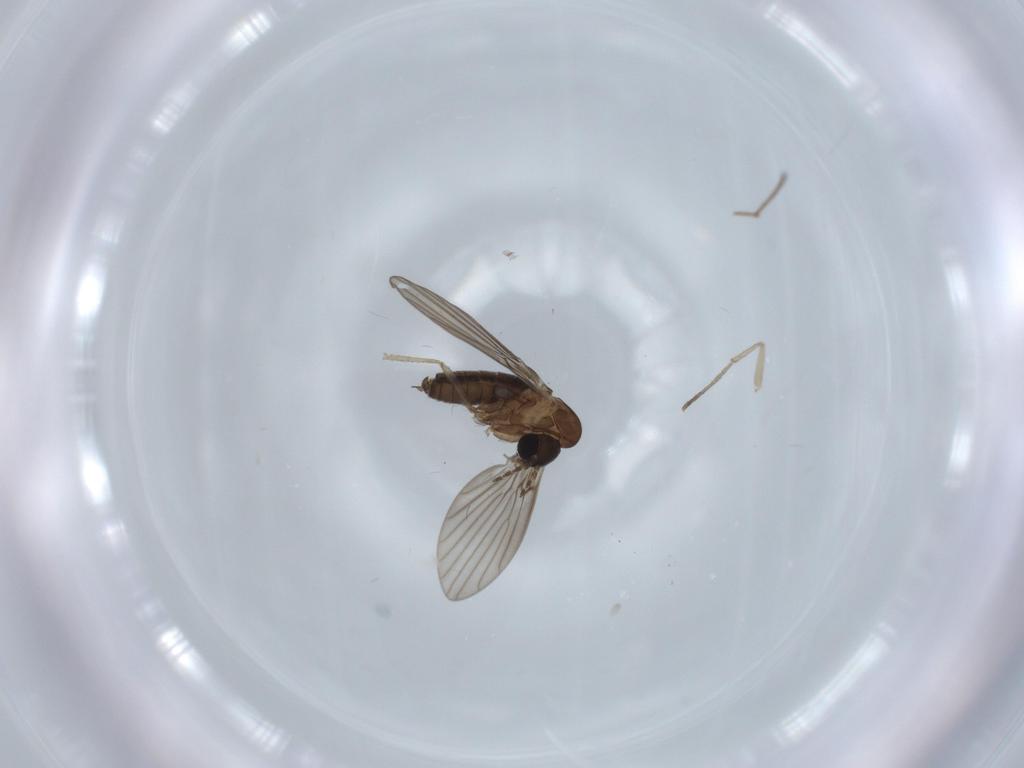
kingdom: Animalia
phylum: Arthropoda
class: Insecta
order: Diptera
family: Psychodidae
